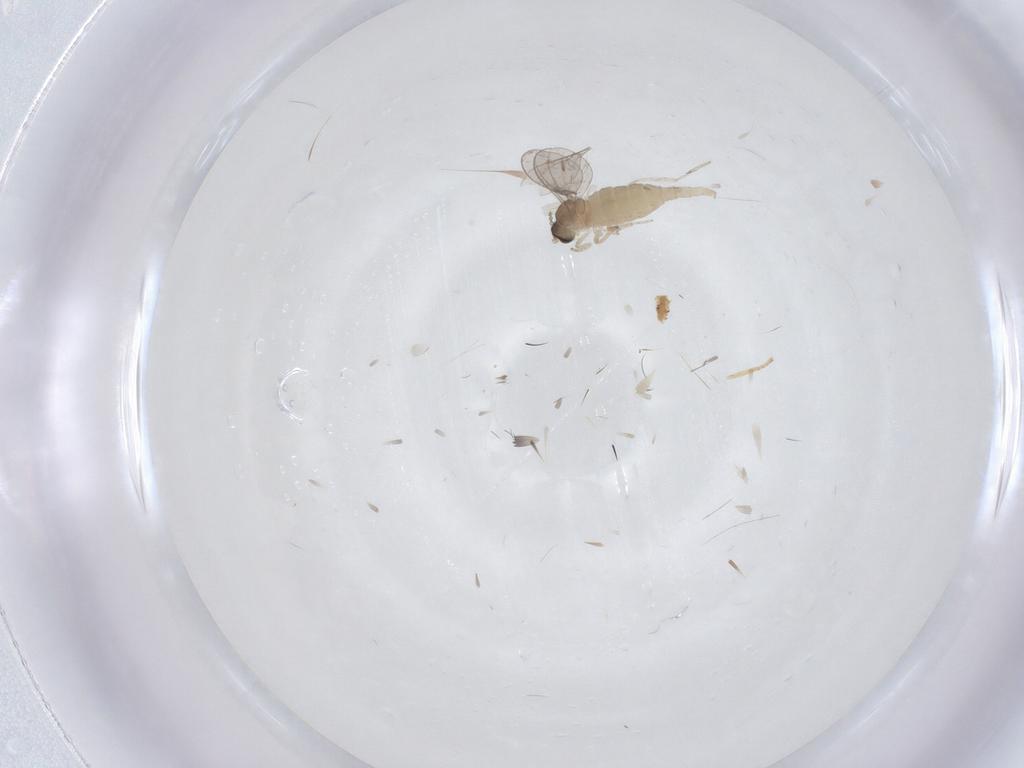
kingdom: Animalia
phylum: Arthropoda
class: Insecta
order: Diptera
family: Cecidomyiidae
